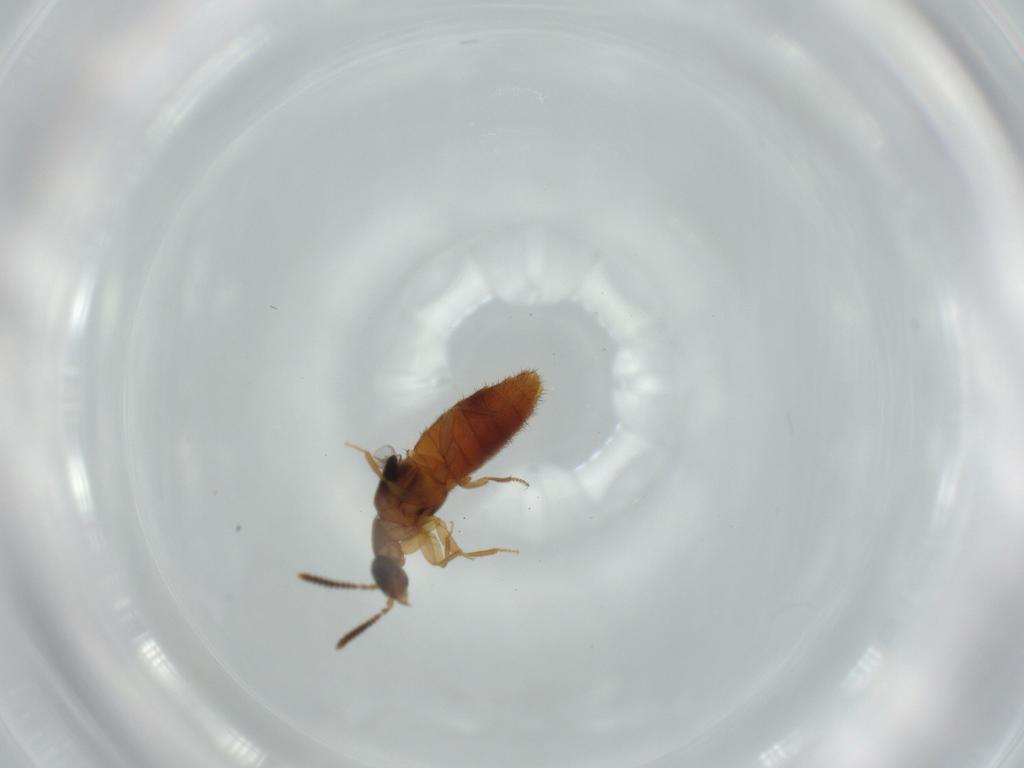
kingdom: Animalia
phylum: Arthropoda
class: Insecta
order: Coleoptera
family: Staphylinidae
